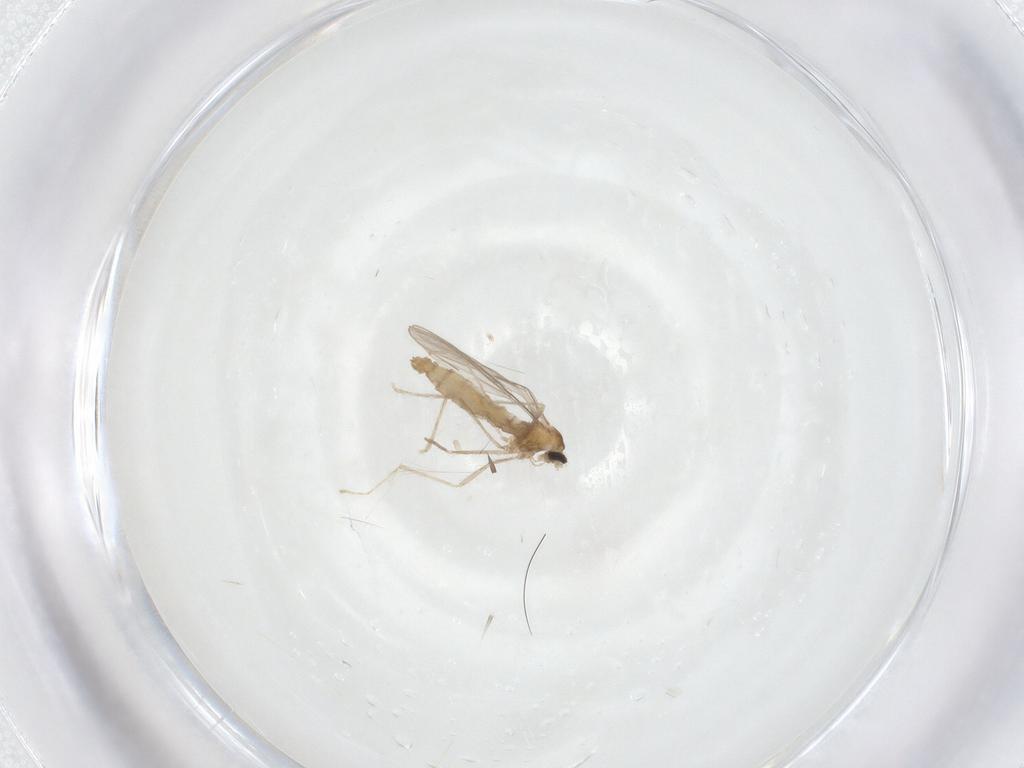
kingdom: Animalia
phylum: Arthropoda
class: Insecta
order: Diptera
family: Cecidomyiidae
